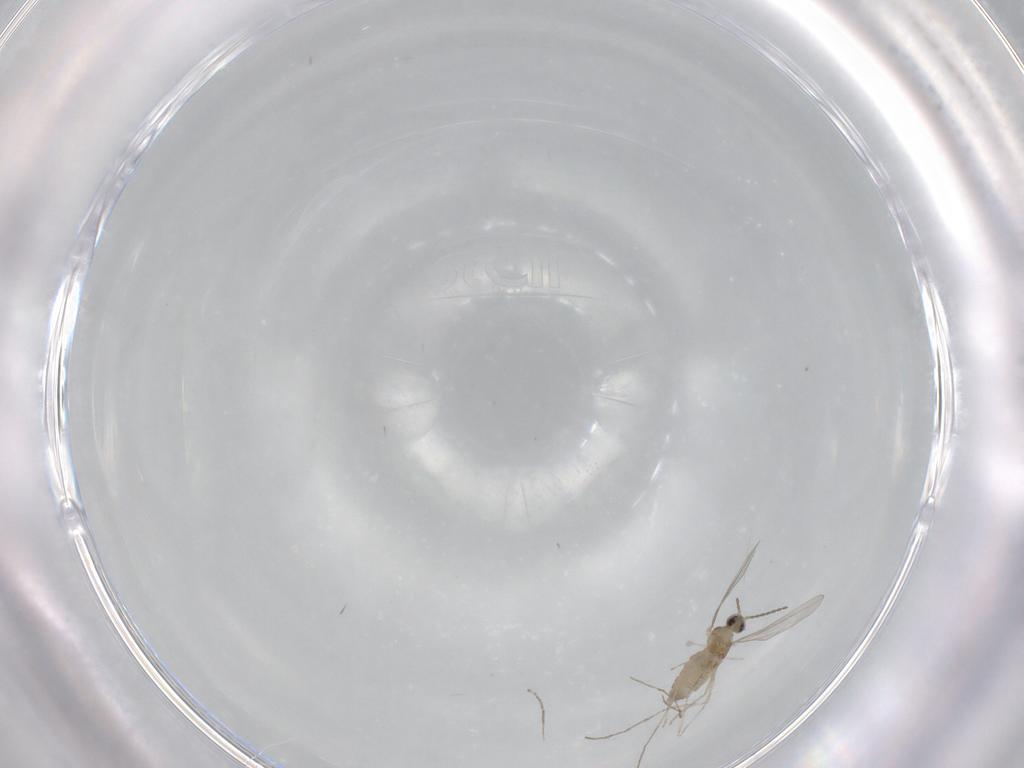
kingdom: Animalia
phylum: Arthropoda
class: Insecta
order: Diptera
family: Cecidomyiidae
